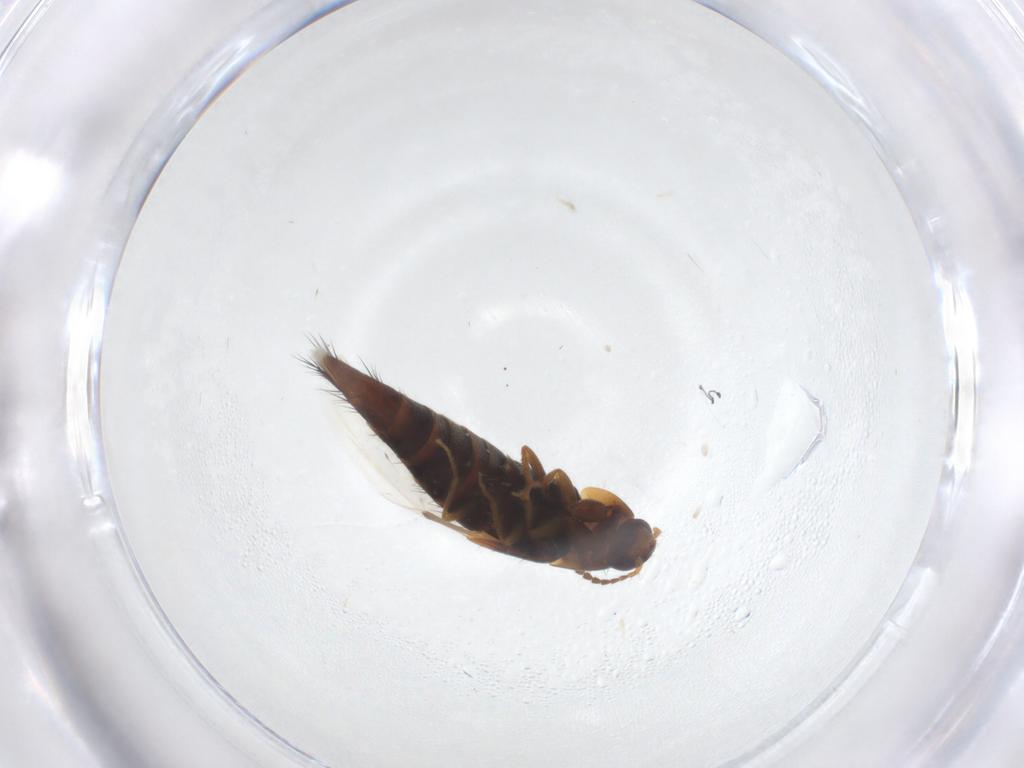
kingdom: Animalia
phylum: Arthropoda
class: Insecta
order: Coleoptera
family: Staphylinidae
